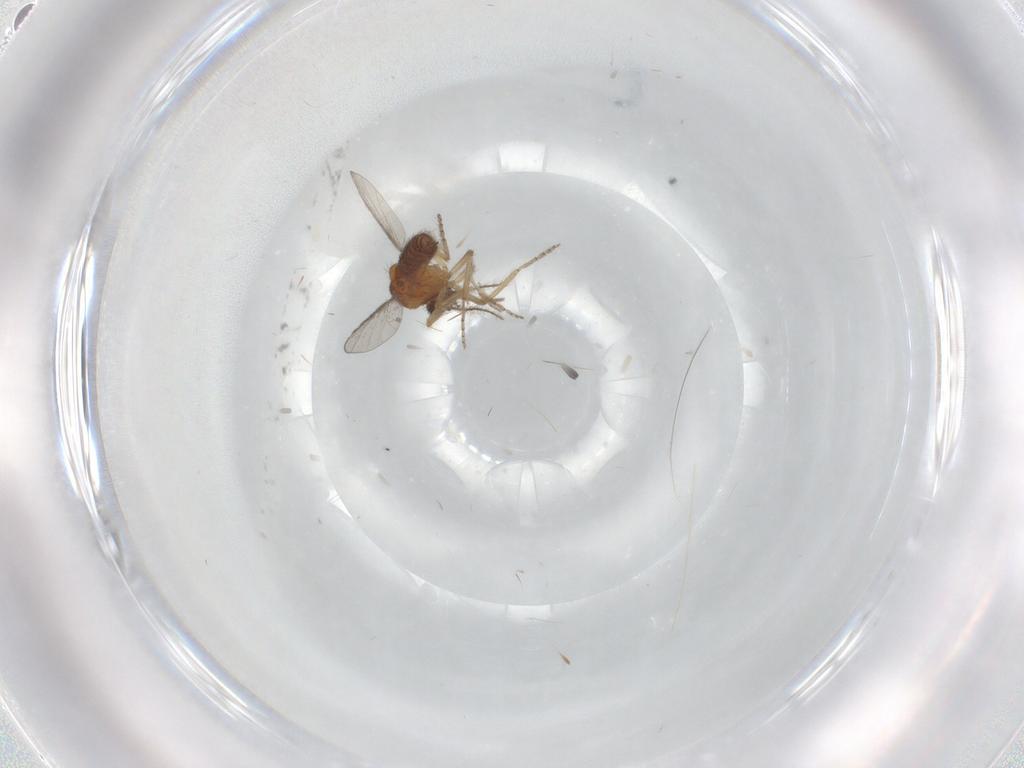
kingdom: Animalia
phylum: Arthropoda
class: Insecta
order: Diptera
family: Ceratopogonidae
